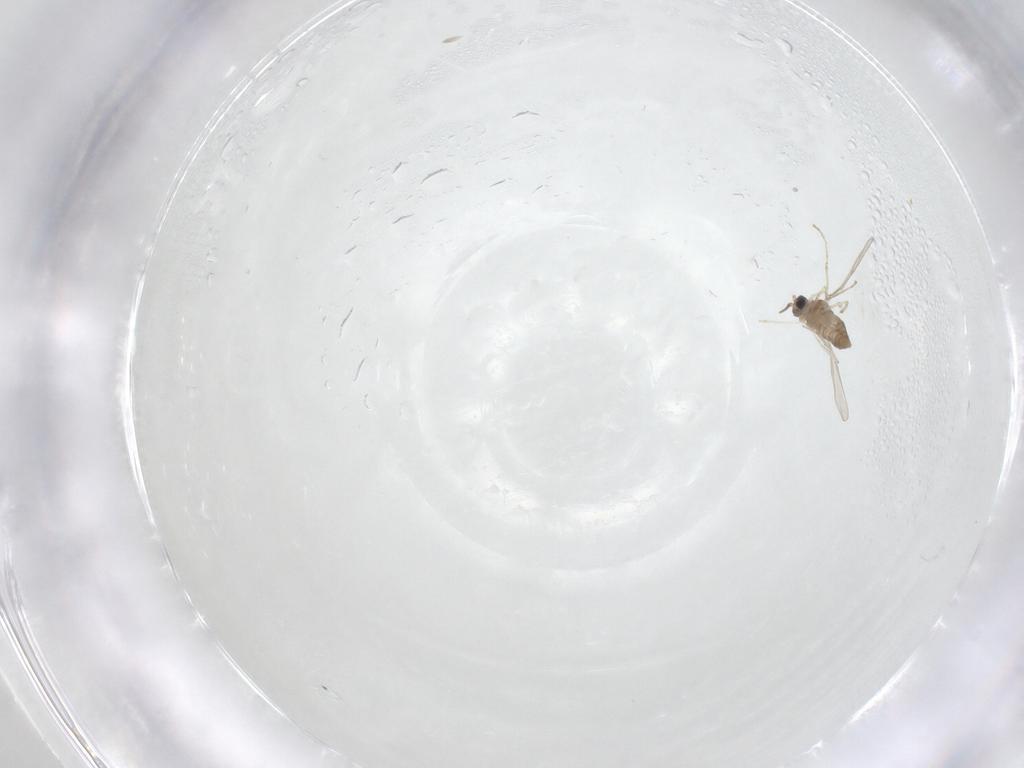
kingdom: Animalia
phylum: Arthropoda
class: Insecta
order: Diptera
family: Cecidomyiidae
